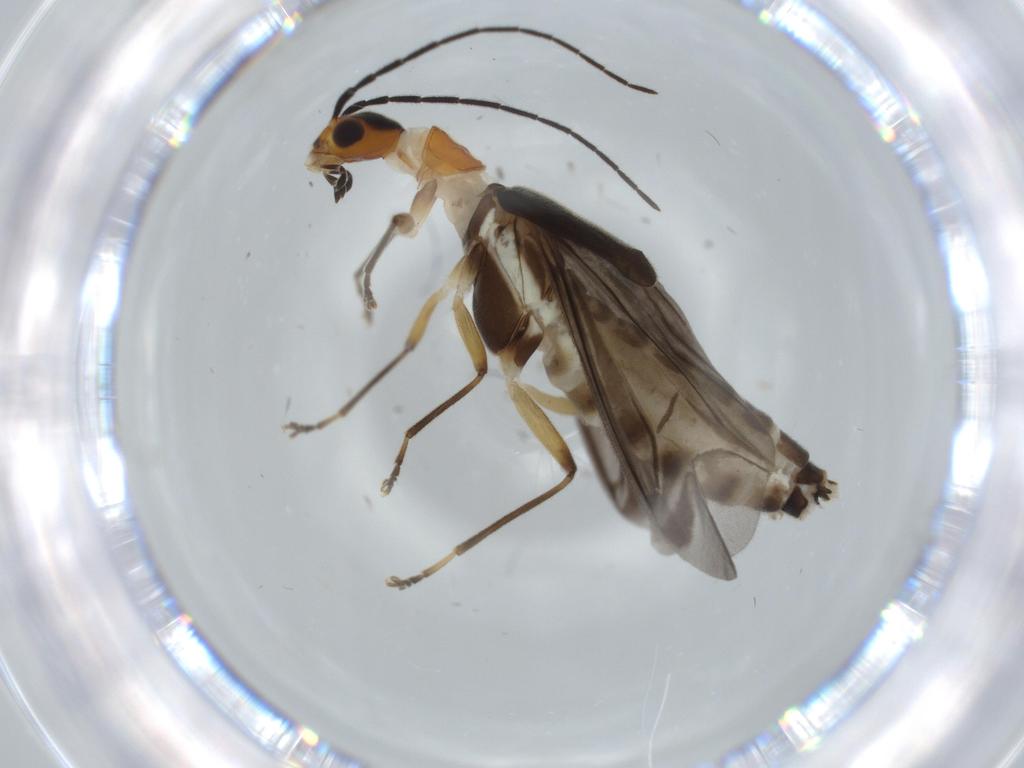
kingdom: Animalia
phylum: Arthropoda
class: Insecta
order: Coleoptera
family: Cantharidae
